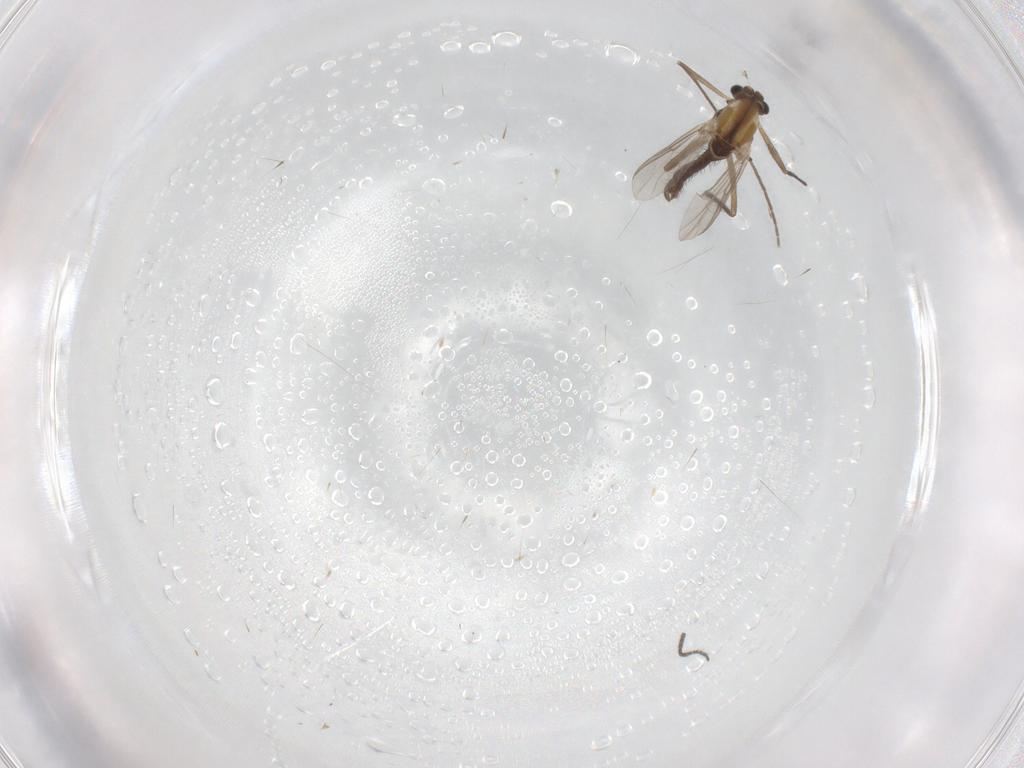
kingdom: Animalia
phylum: Arthropoda
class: Insecta
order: Diptera
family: Chironomidae
